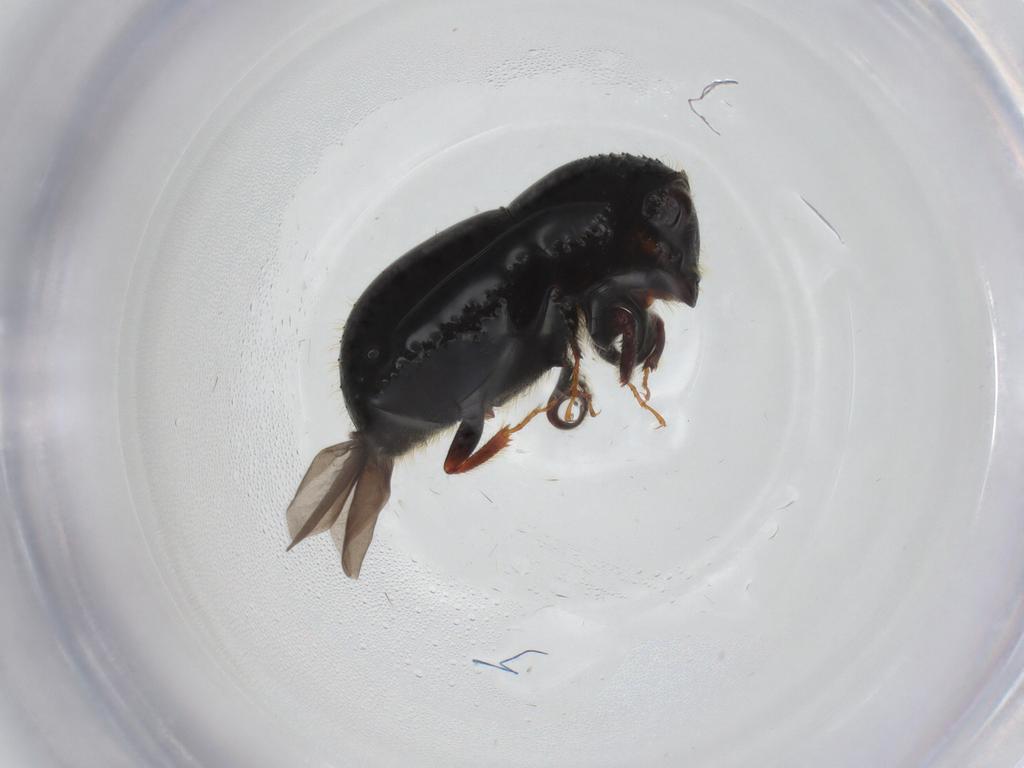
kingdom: Animalia
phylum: Arthropoda
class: Insecta
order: Coleoptera
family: Curculionidae
